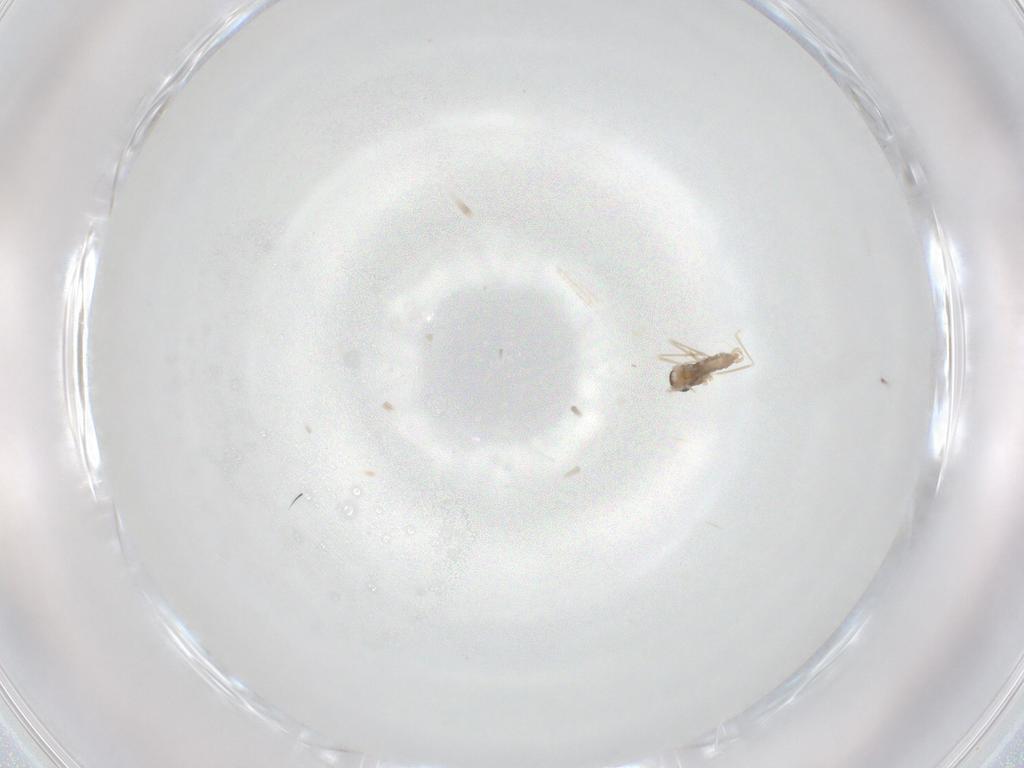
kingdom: Animalia
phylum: Arthropoda
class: Insecta
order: Diptera
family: Cecidomyiidae
